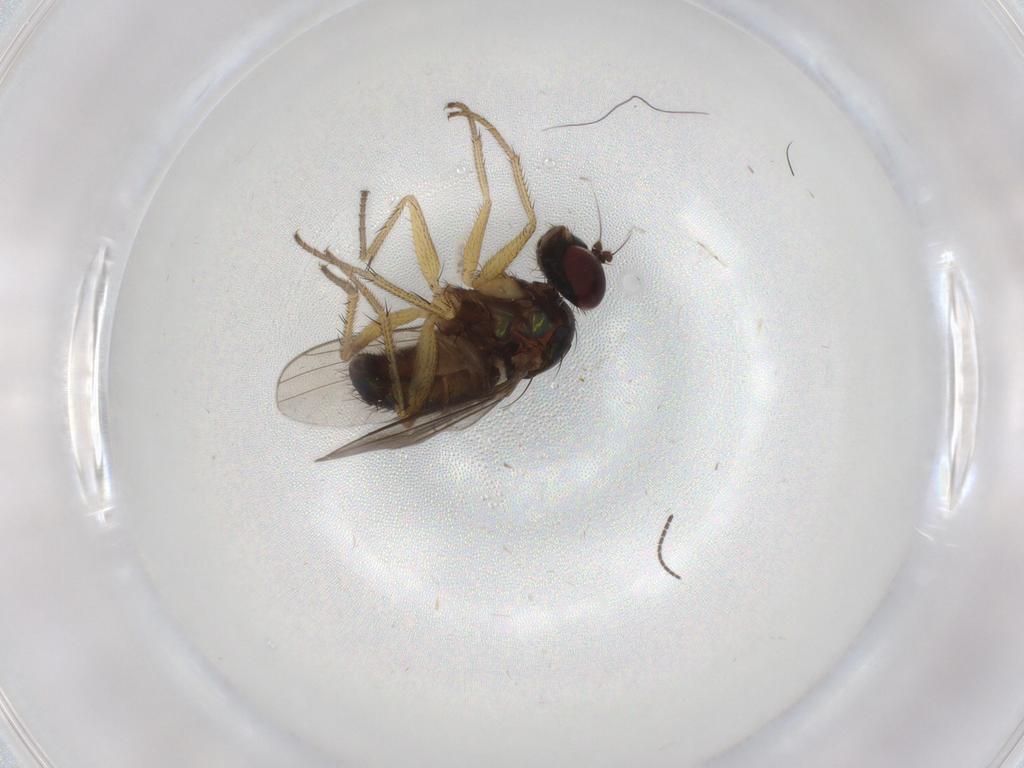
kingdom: Animalia
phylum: Arthropoda
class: Insecta
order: Diptera
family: Dolichopodidae
